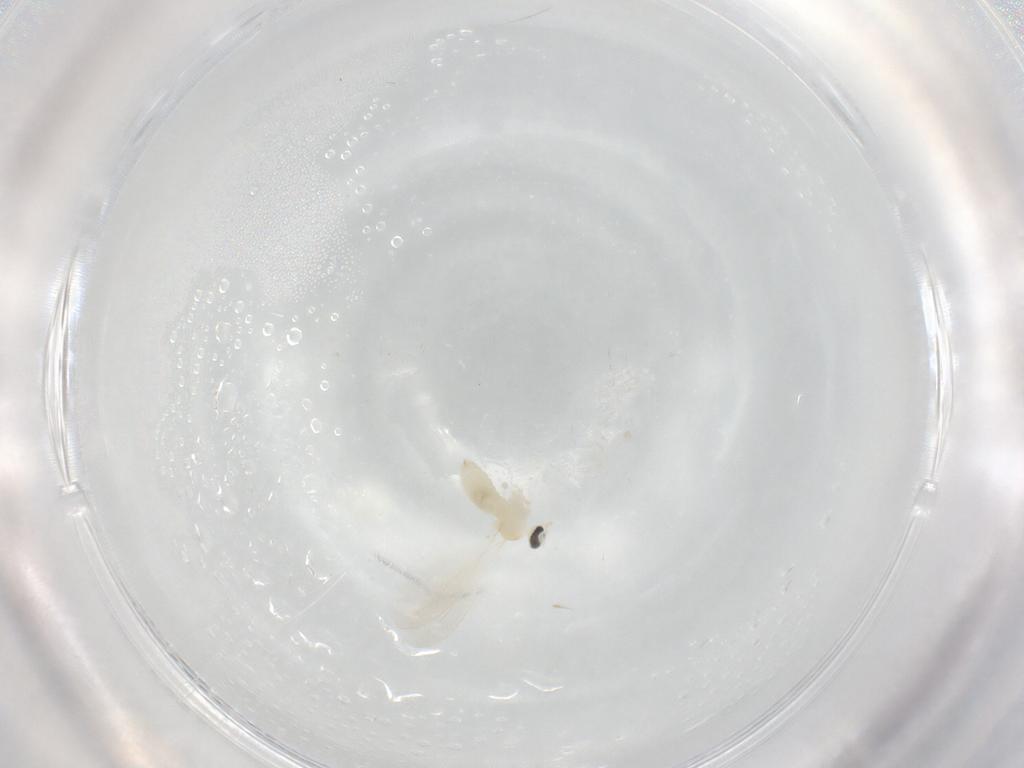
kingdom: Animalia
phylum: Arthropoda
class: Insecta
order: Diptera
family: Cecidomyiidae
